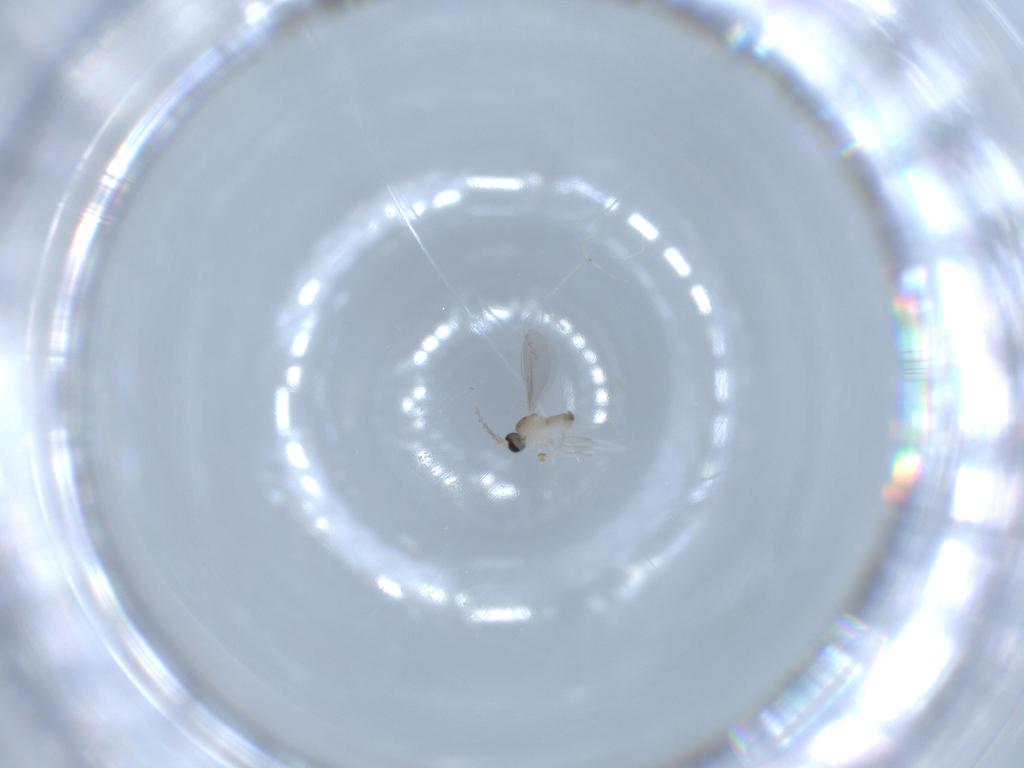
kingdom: Animalia
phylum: Arthropoda
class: Insecta
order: Diptera
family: Cecidomyiidae
